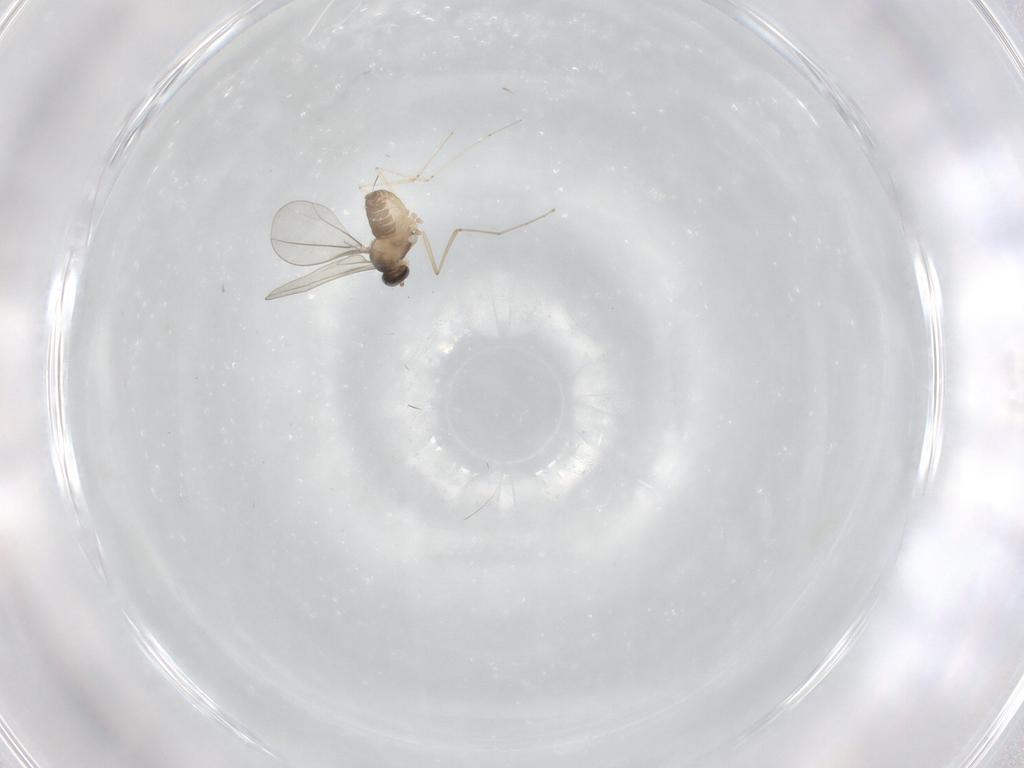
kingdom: Animalia
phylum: Arthropoda
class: Insecta
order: Diptera
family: Cecidomyiidae
